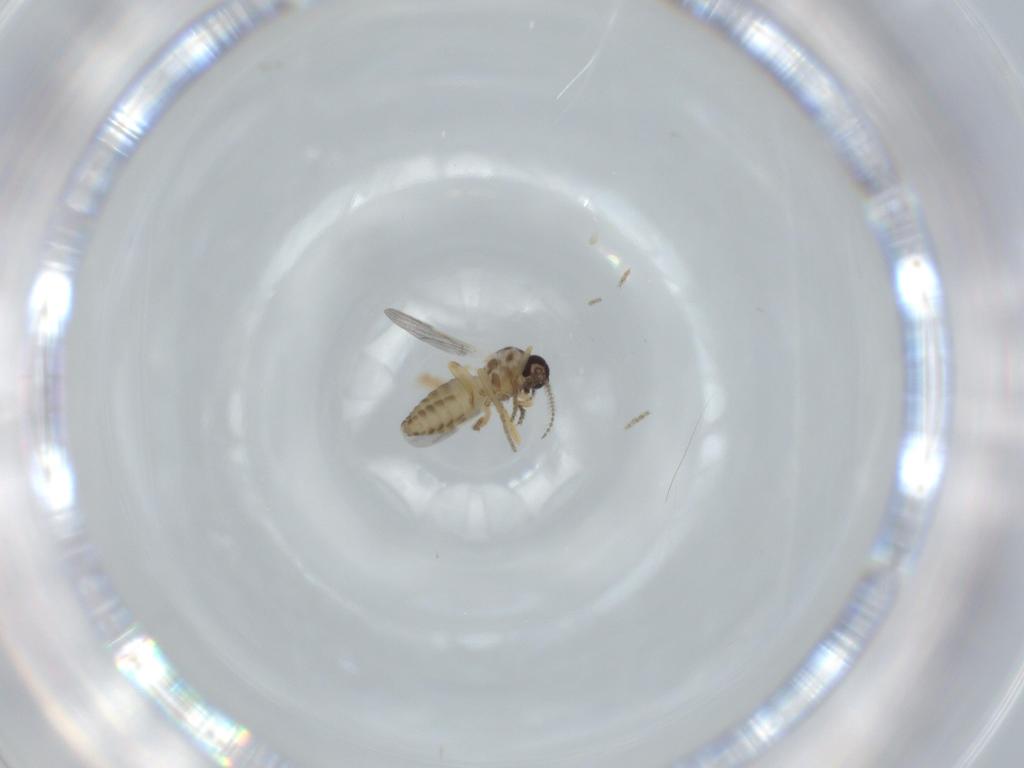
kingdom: Animalia
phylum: Arthropoda
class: Insecta
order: Diptera
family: Ceratopogonidae
